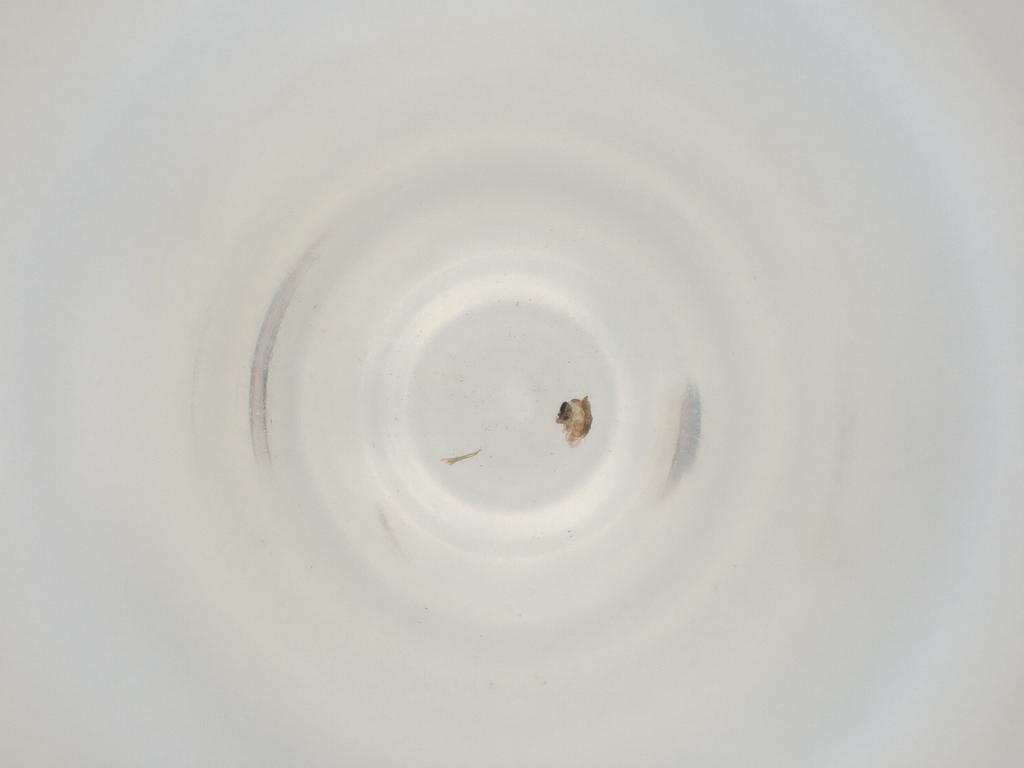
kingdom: Animalia
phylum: Arthropoda
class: Insecta
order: Diptera
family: Cecidomyiidae
